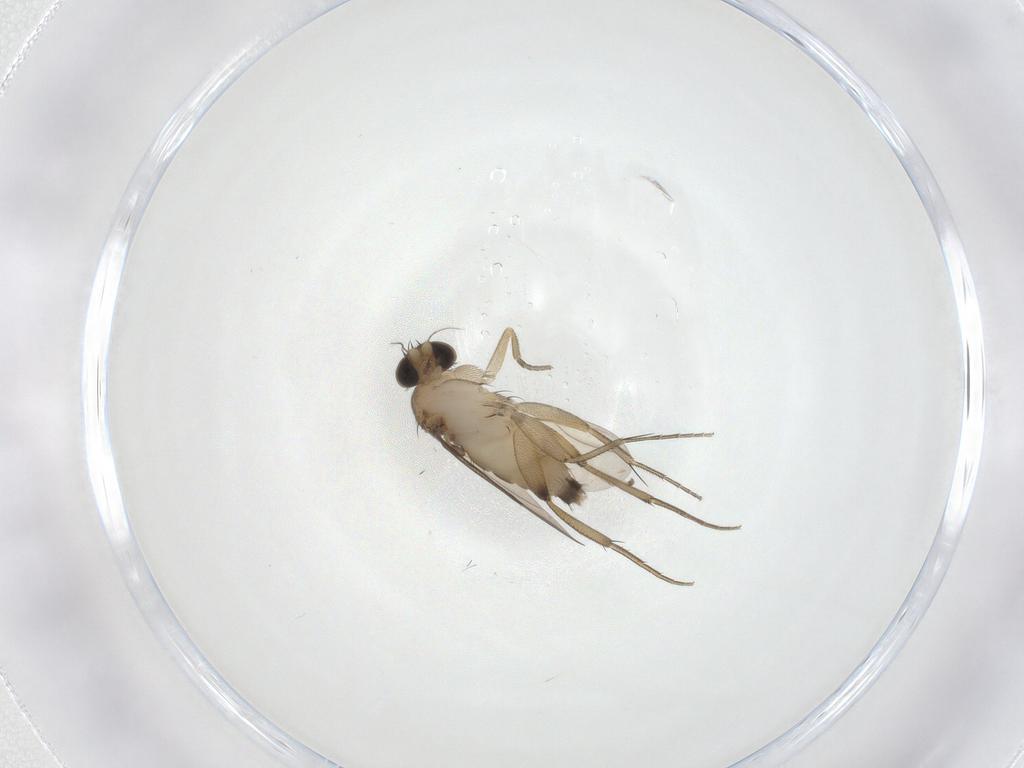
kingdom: Animalia
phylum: Arthropoda
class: Insecta
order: Diptera
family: Phoridae
